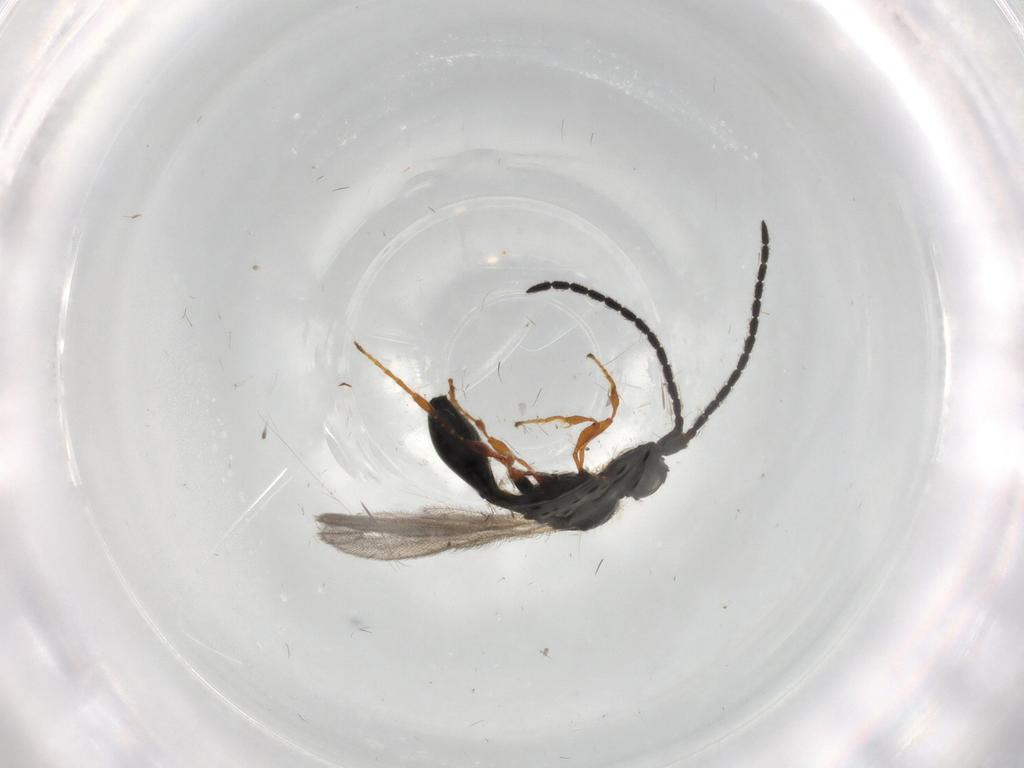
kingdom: Animalia
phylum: Arthropoda
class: Insecta
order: Hymenoptera
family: Diapriidae
